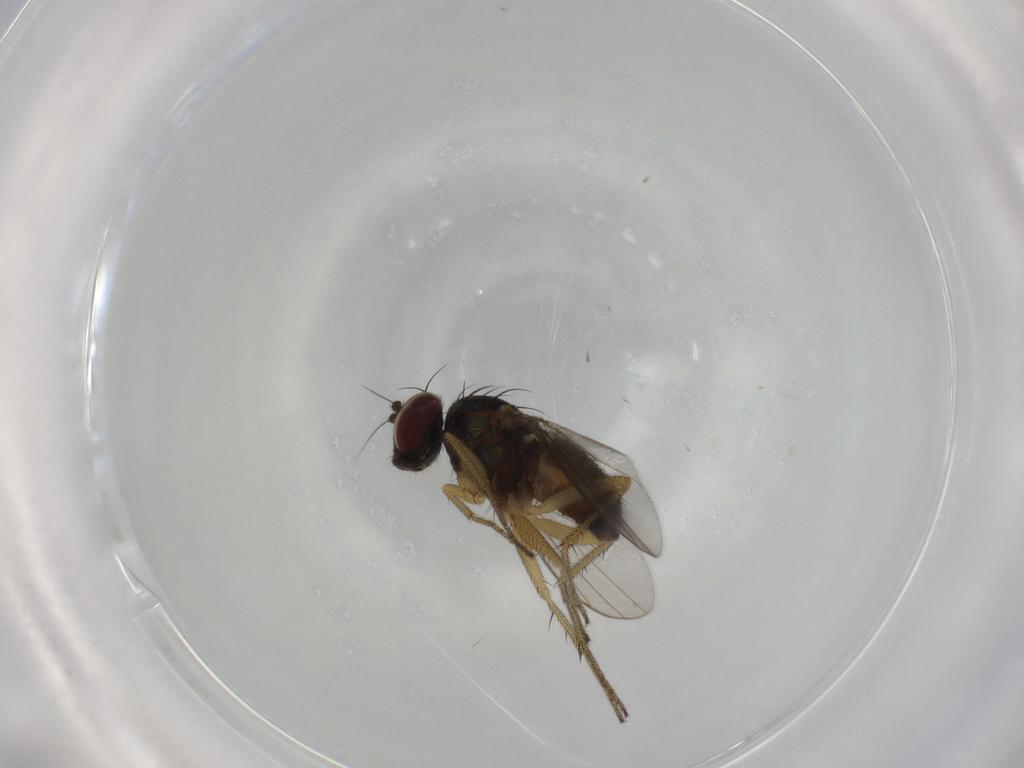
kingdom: Animalia
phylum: Arthropoda
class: Insecta
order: Diptera
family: Dolichopodidae
